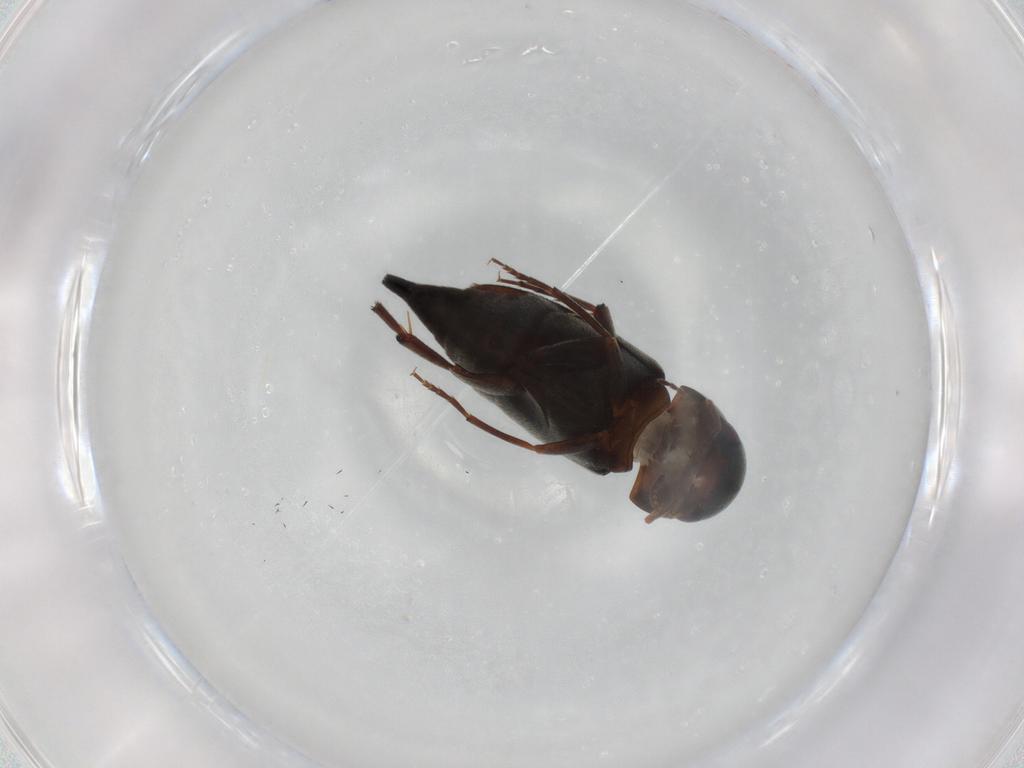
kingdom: Animalia
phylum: Arthropoda
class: Insecta
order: Coleoptera
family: Mordellidae
